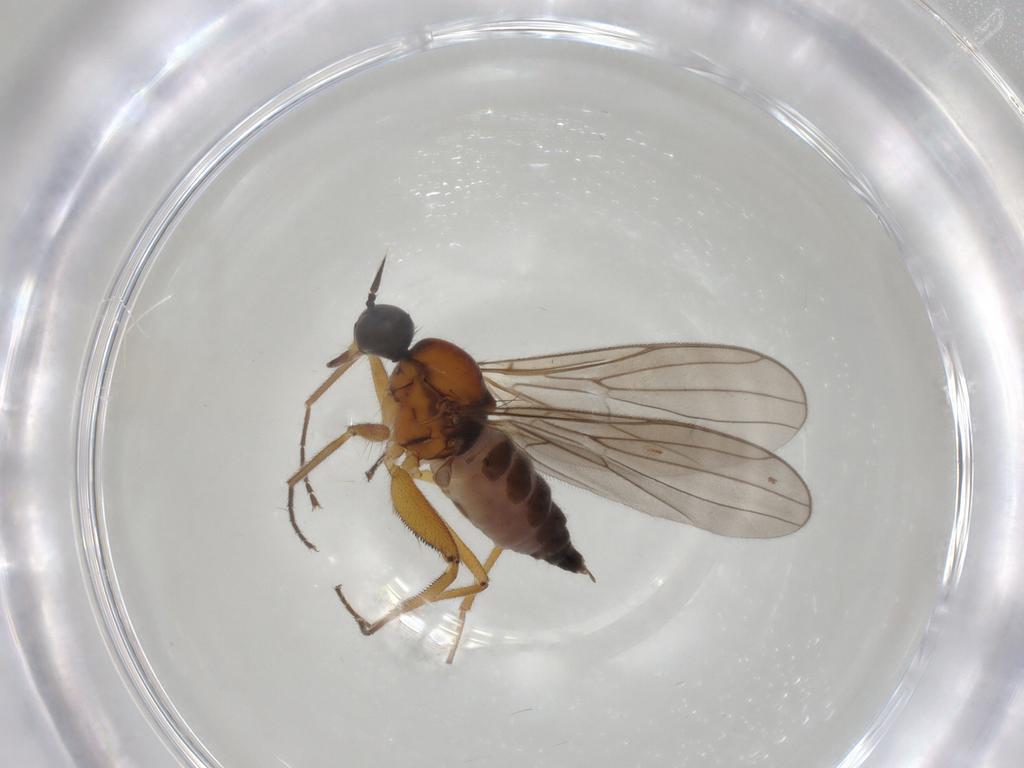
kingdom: Animalia
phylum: Arthropoda
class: Insecta
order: Diptera
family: Hybotidae
